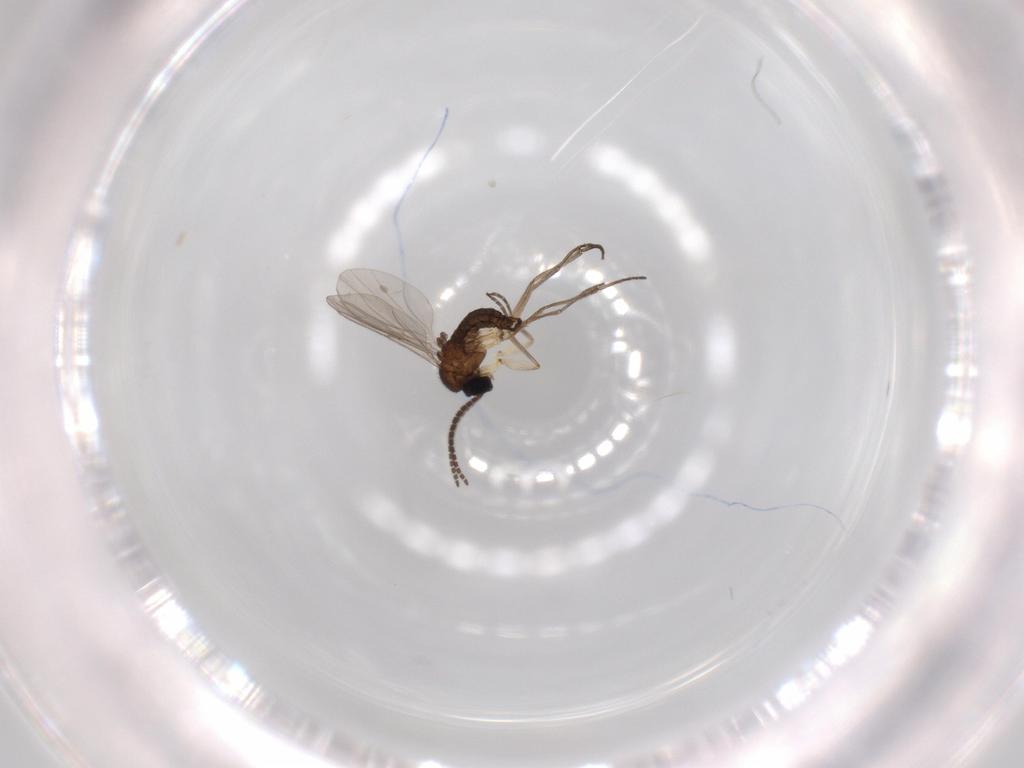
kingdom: Animalia
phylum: Arthropoda
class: Insecta
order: Diptera
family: Sciaridae
